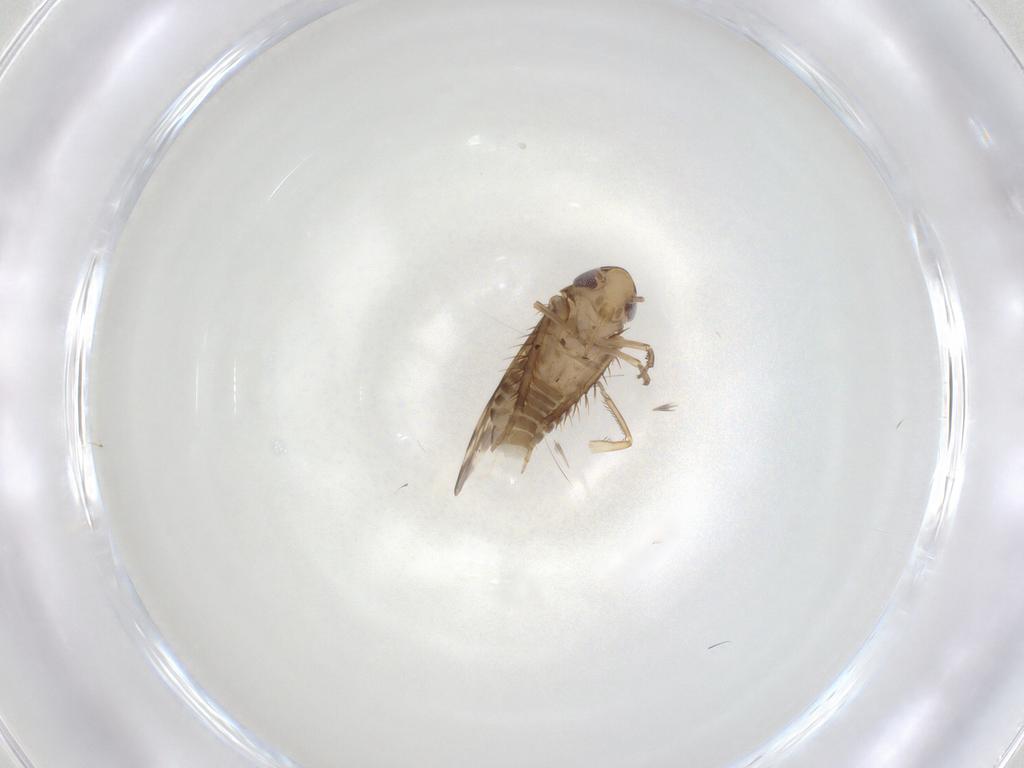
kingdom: Animalia
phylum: Arthropoda
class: Insecta
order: Hemiptera
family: Cicadellidae
